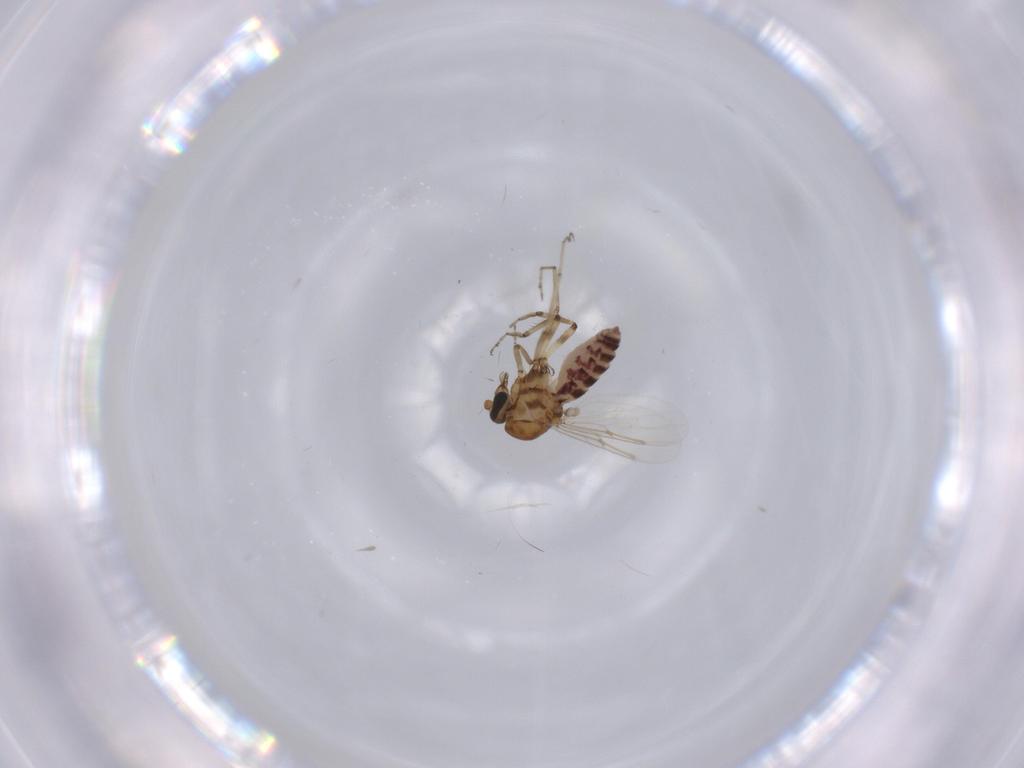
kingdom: Animalia
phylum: Arthropoda
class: Insecta
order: Diptera
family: Ceratopogonidae
